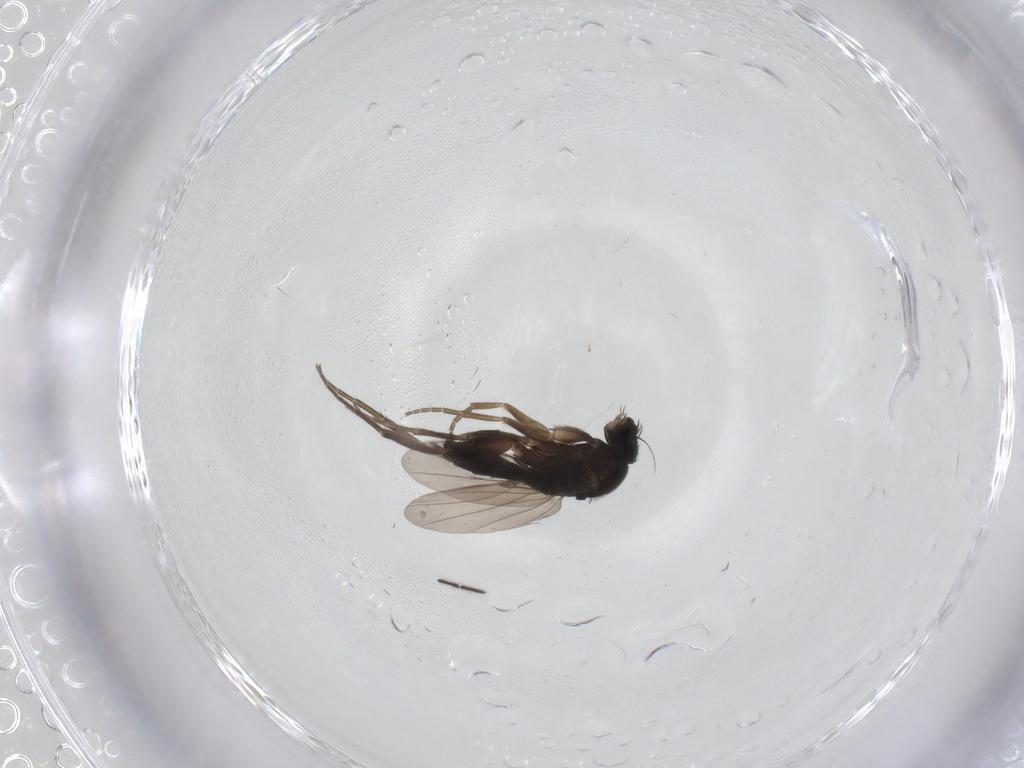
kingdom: Animalia
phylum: Arthropoda
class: Insecta
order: Diptera
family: Phoridae
